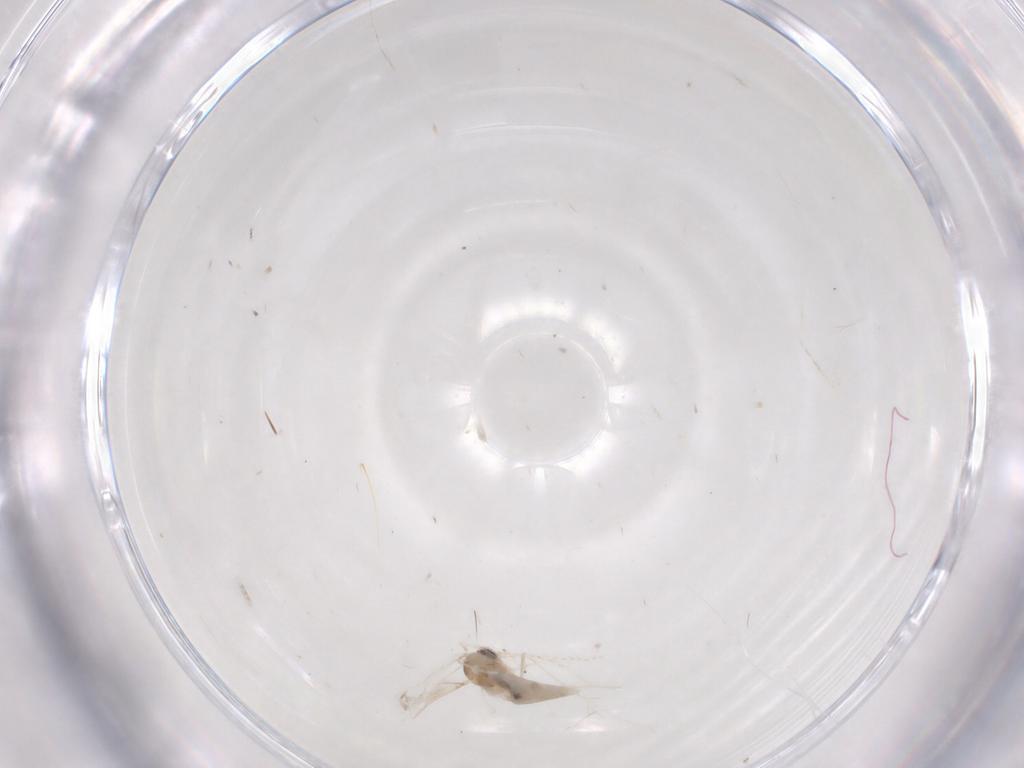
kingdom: Animalia
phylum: Arthropoda
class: Insecta
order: Diptera
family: Cecidomyiidae
